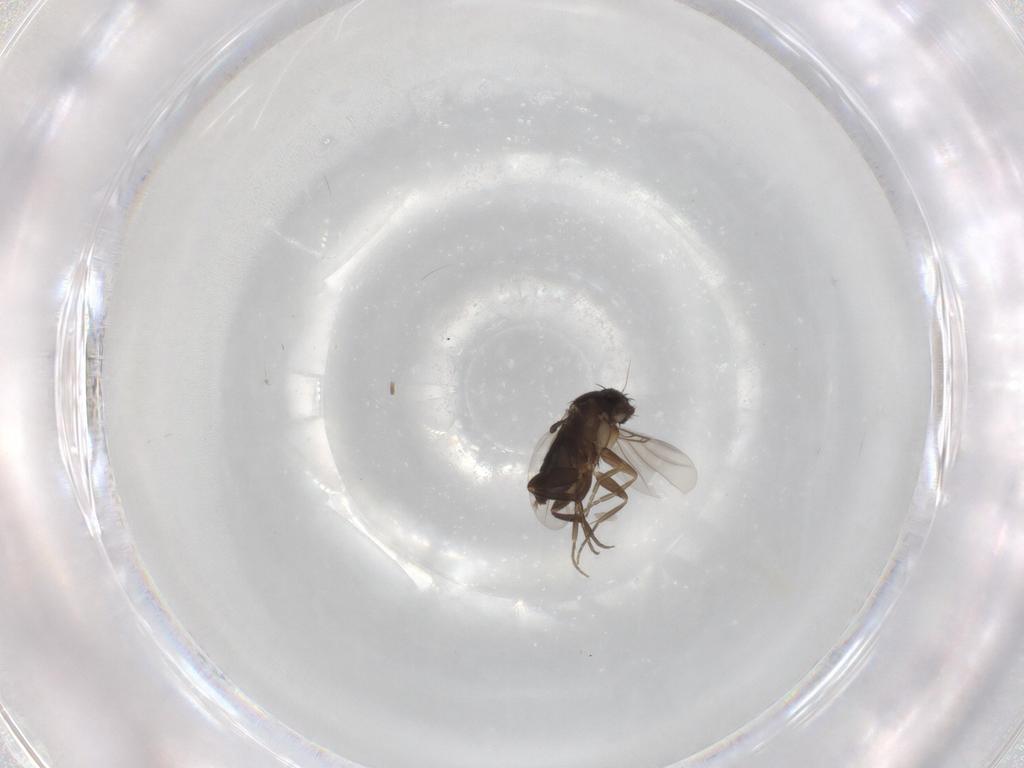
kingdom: Animalia
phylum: Arthropoda
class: Insecta
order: Diptera
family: Phoridae
